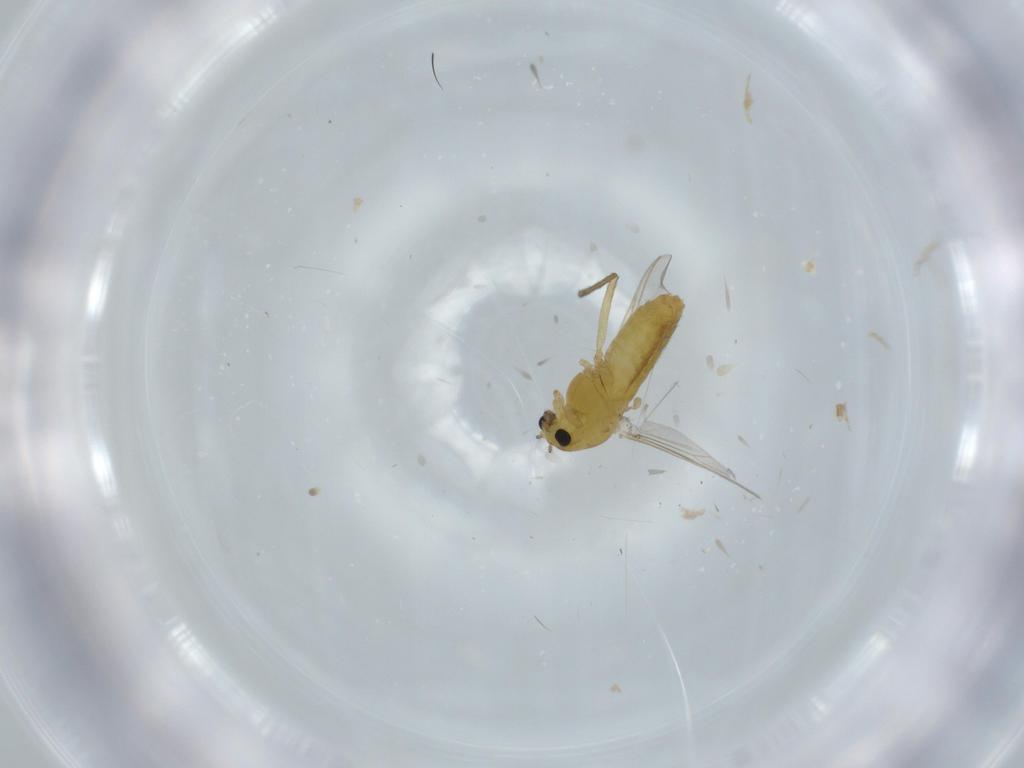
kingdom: Animalia
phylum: Arthropoda
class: Insecta
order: Diptera
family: Chironomidae
